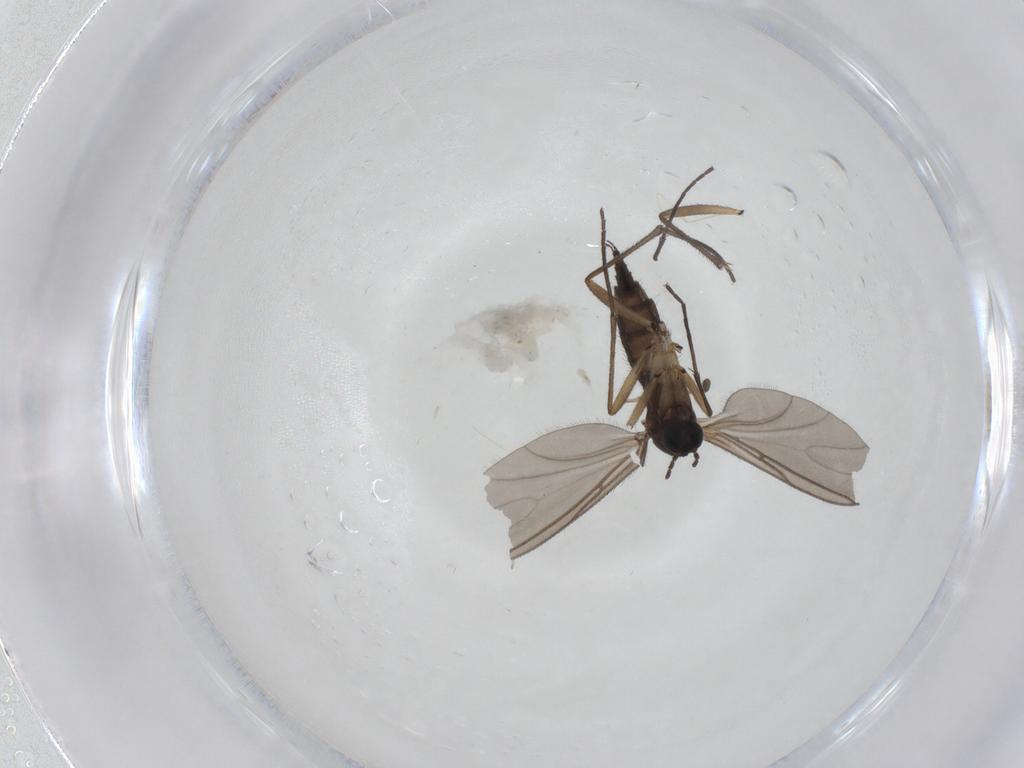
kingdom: Animalia
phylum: Arthropoda
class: Insecta
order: Diptera
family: Sciaridae
